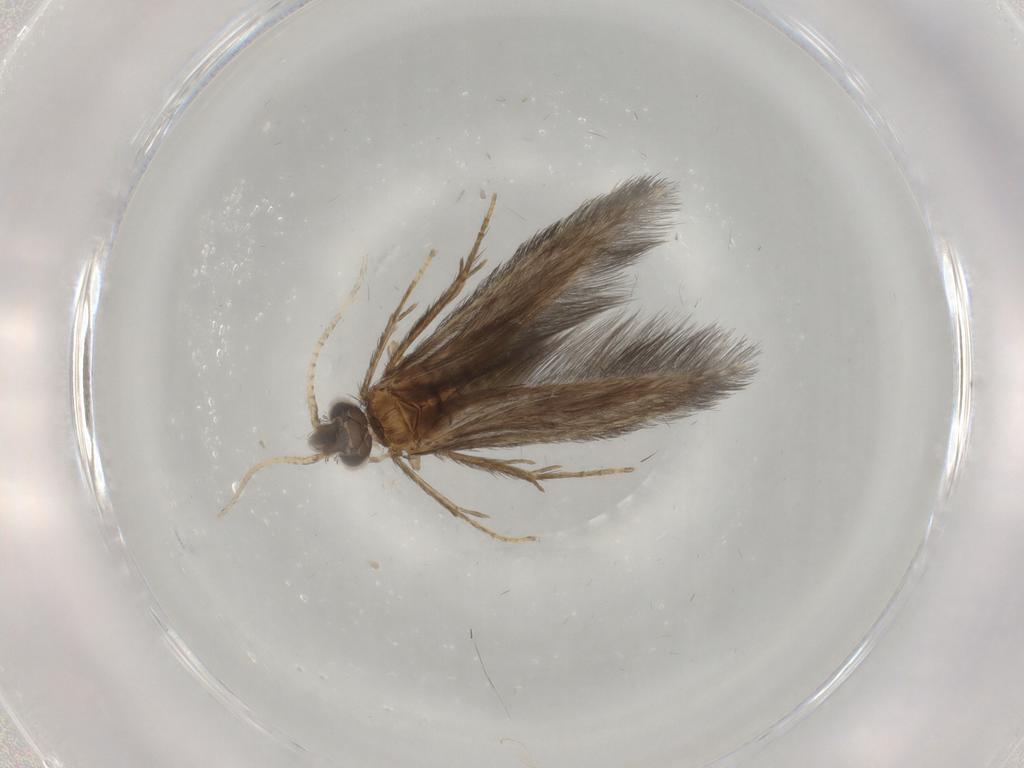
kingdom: Animalia
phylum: Arthropoda
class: Insecta
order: Trichoptera
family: Hydroptilidae
